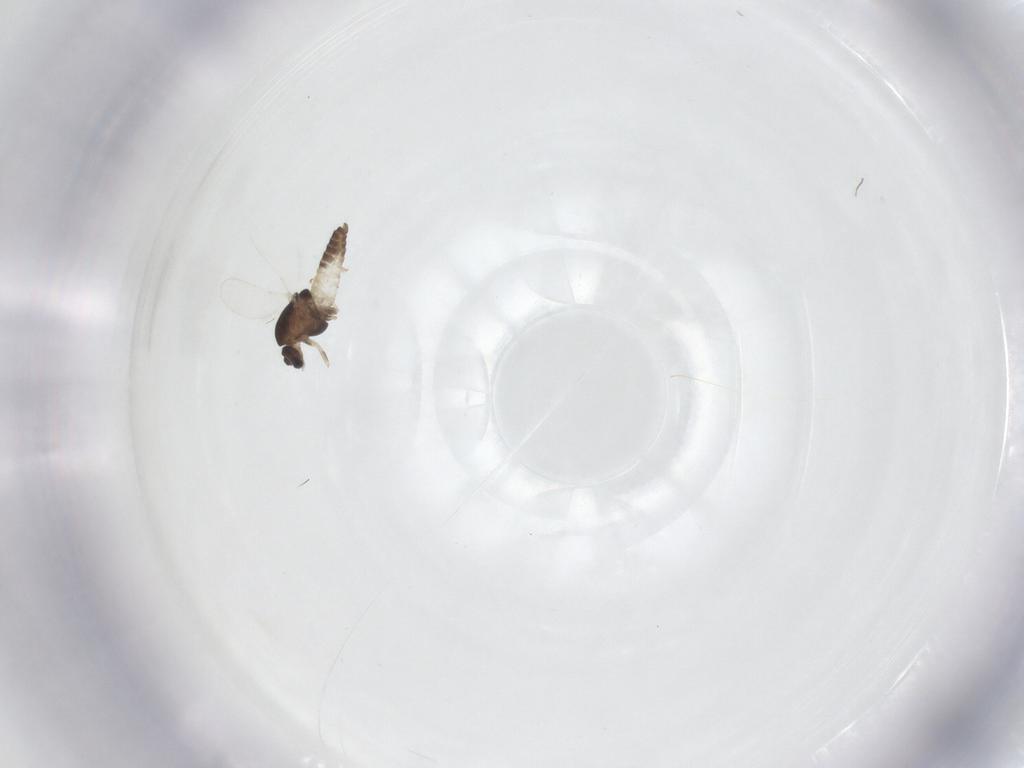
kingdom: Animalia
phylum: Arthropoda
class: Insecta
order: Diptera
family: Chironomidae
